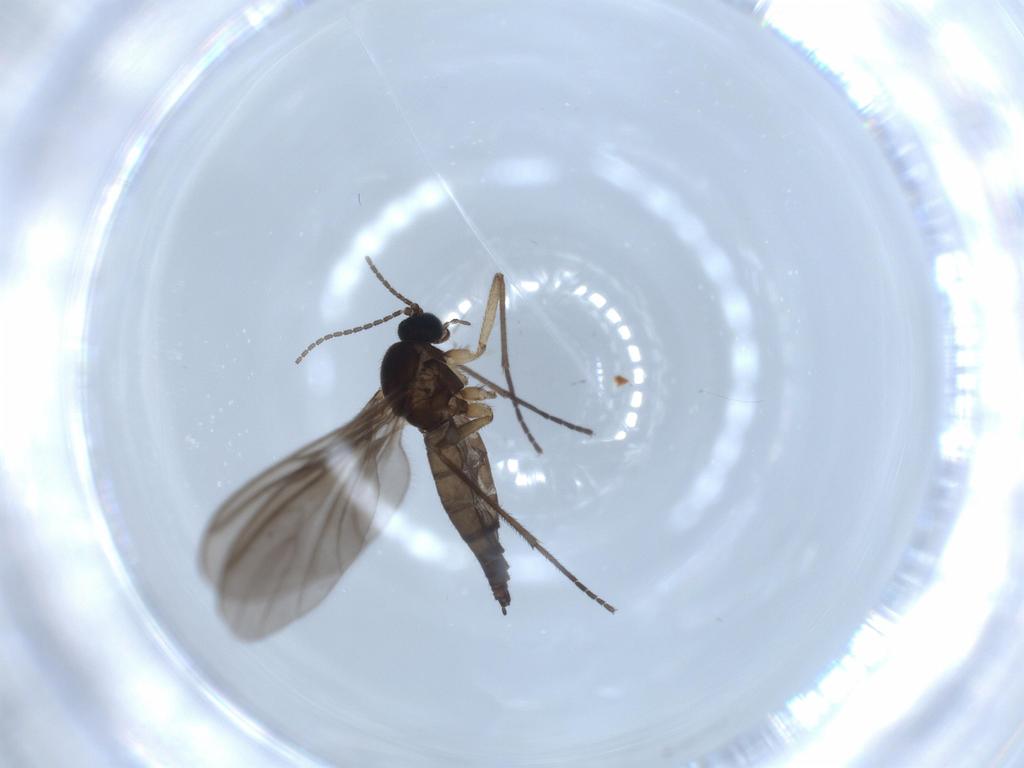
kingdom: Animalia
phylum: Arthropoda
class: Insecta
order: Diptera
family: Sciaridae
